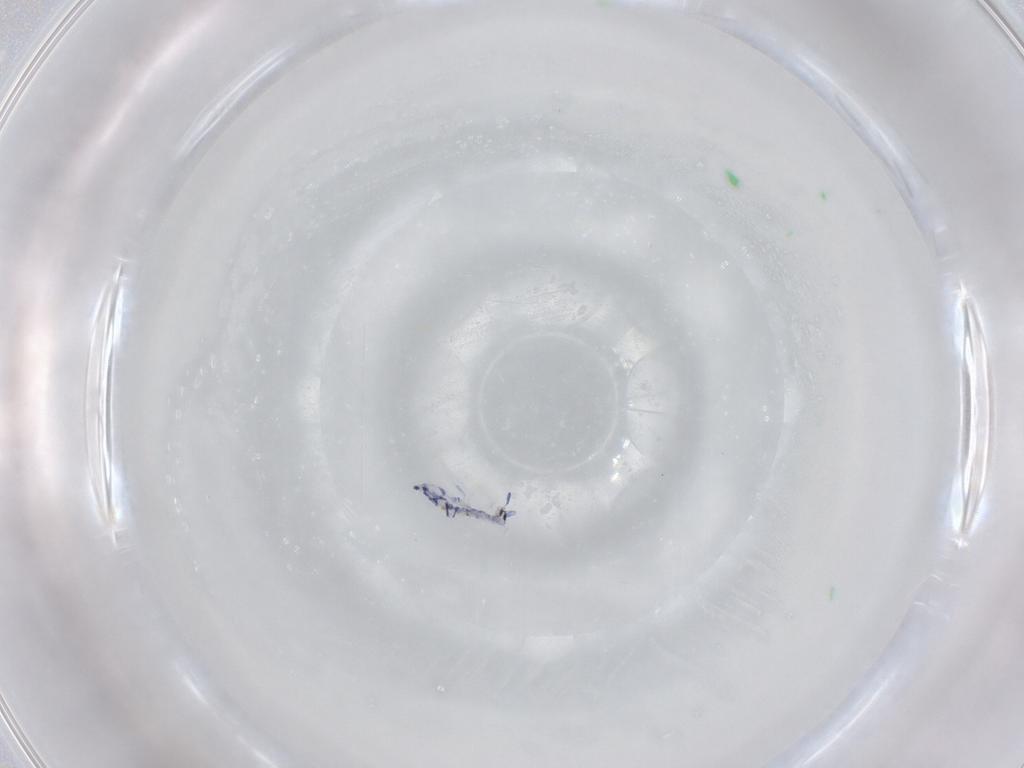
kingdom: Animalia
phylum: Arthropoda
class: Collembola
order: Entomobryomorpha
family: Entomobryidae
